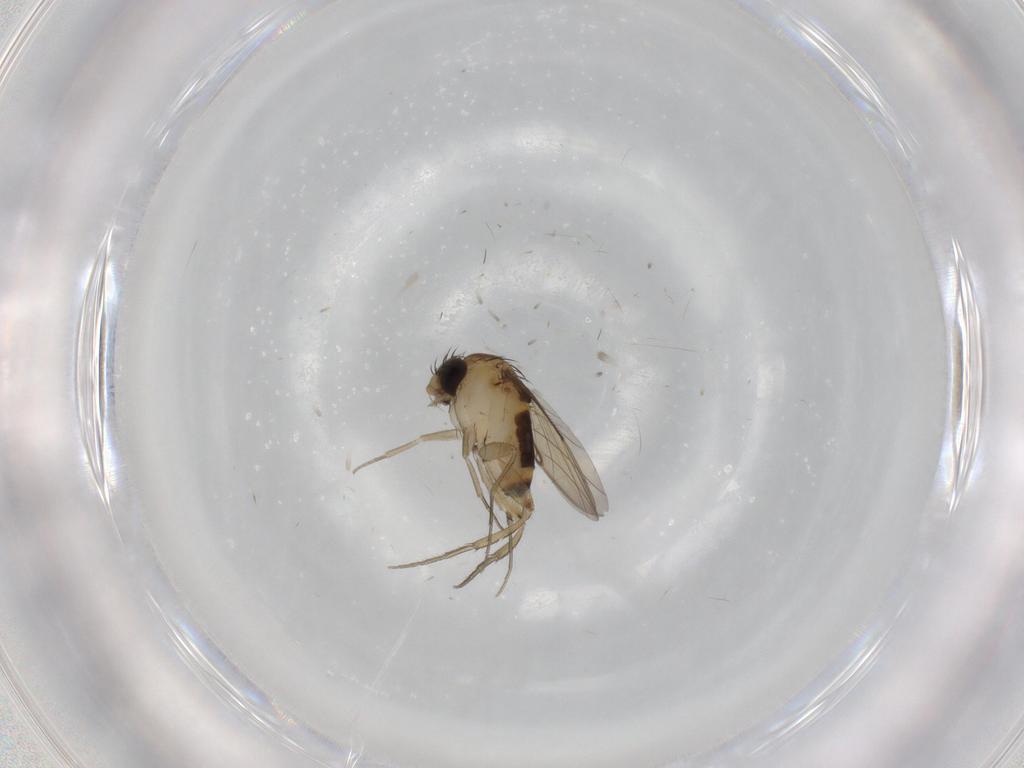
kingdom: Animalia
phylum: Arthropoda
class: Insecta
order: Diptera
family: Phoridae
